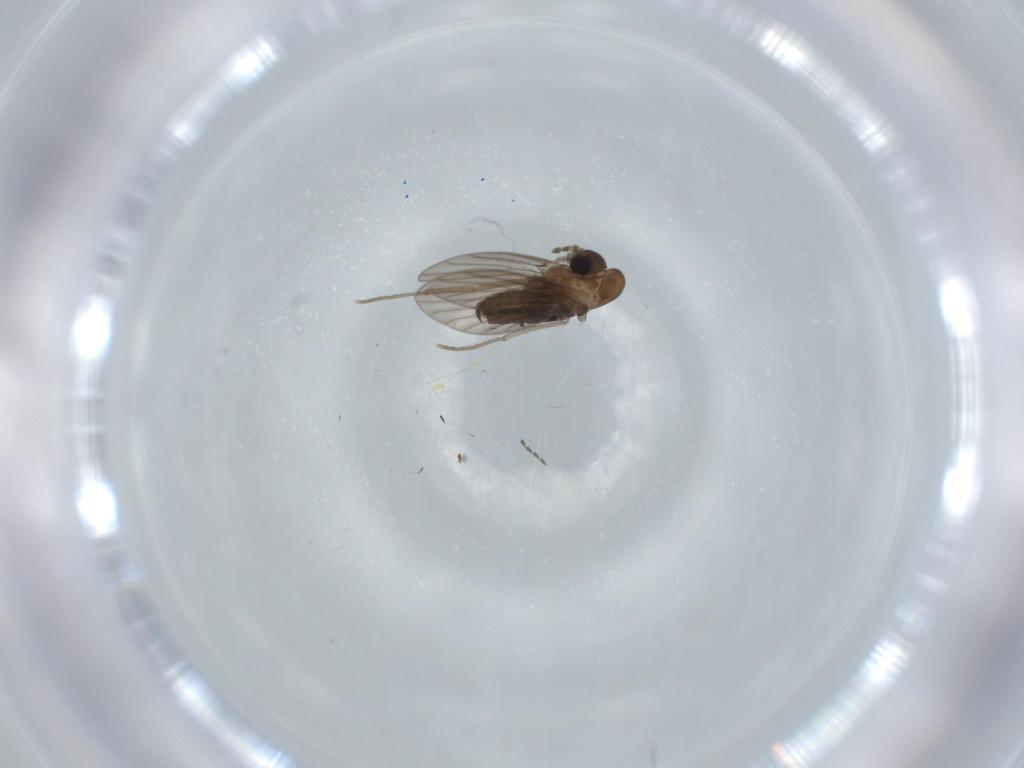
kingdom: Animalia
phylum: Arthropoda
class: Insecta
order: Diptera
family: Psychodidae
